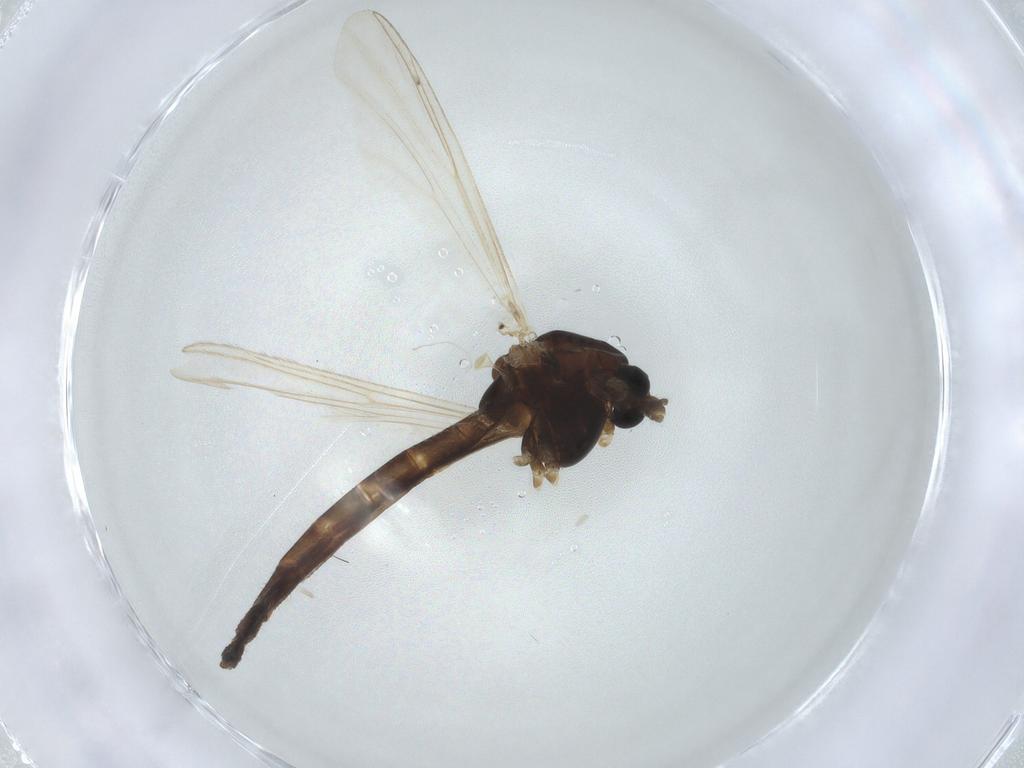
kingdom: Animalia
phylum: Arthropoda
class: Insecta
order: Diptera
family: Chironomidae
